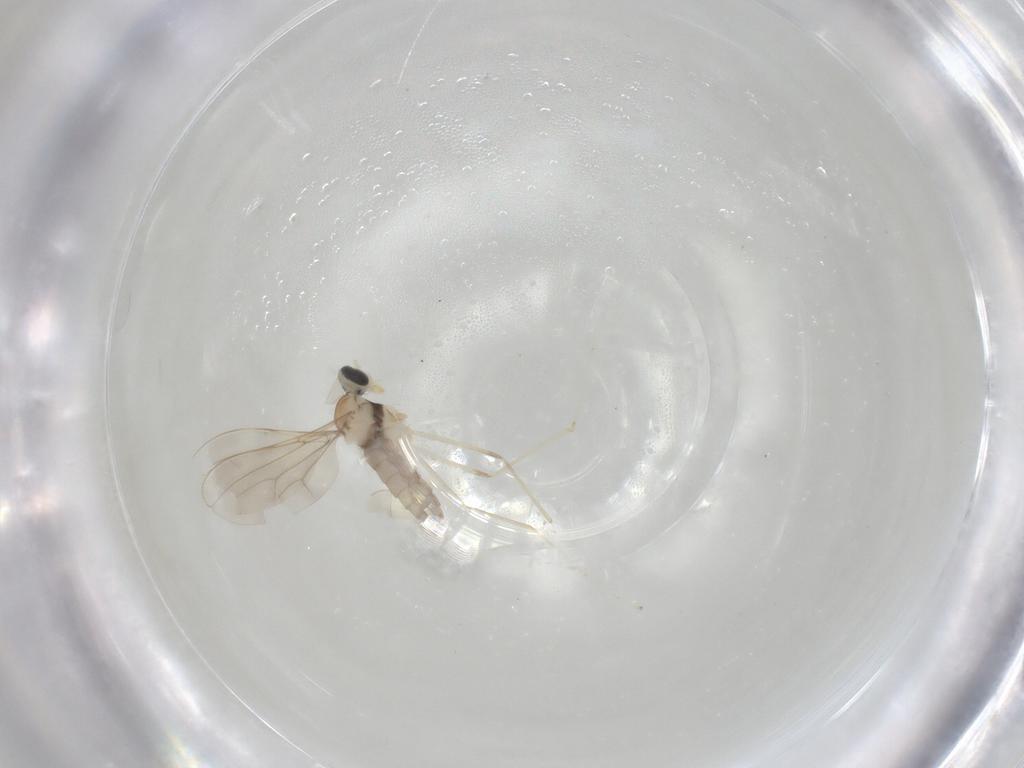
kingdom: Animalia
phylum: Arthropoda
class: Insecta
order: Diptera
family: Cecidomyiidae
